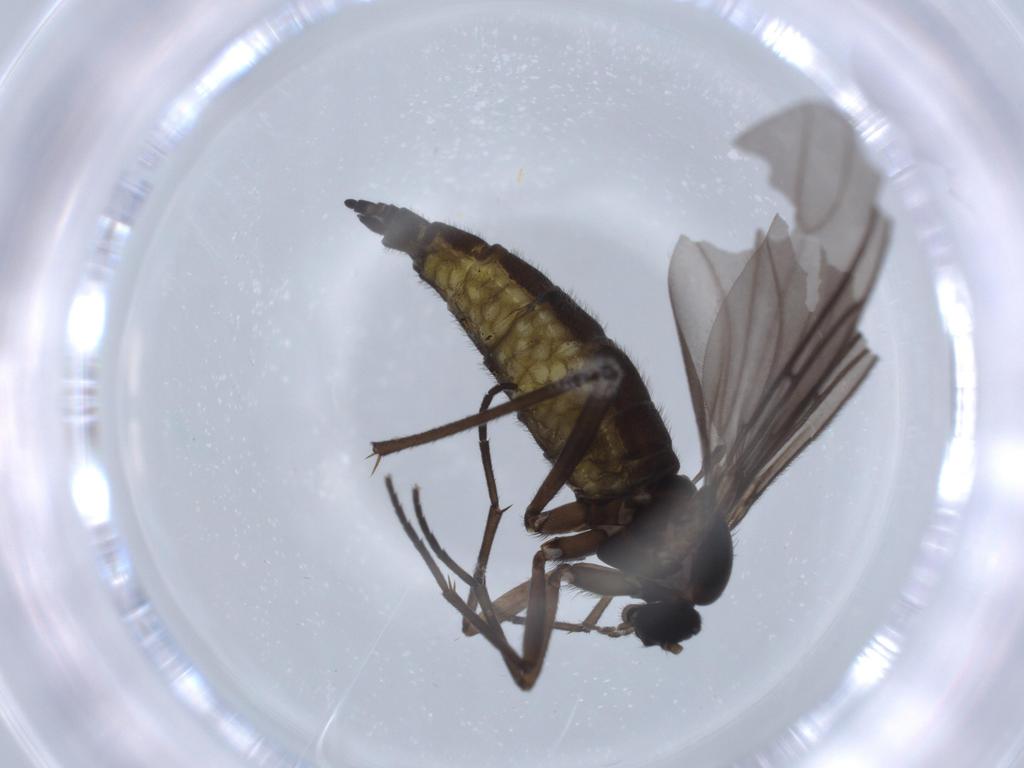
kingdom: Animalia
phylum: Arthropoda
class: Insecta
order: Diptera
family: Sciaridae
